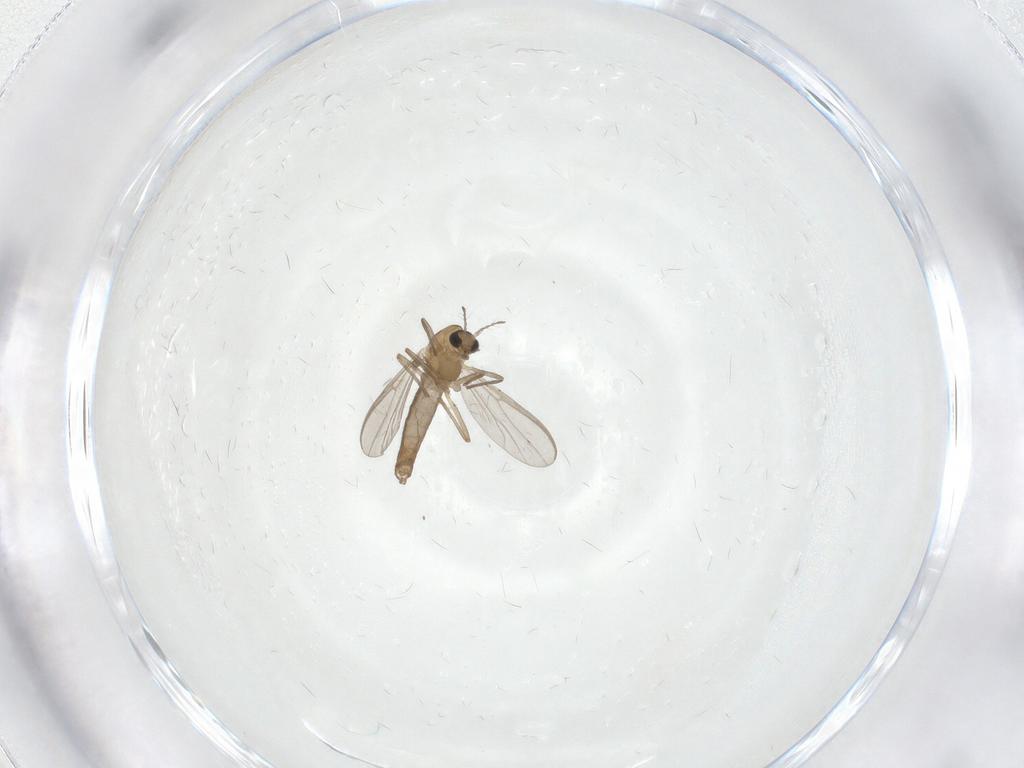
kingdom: Animalia
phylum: Arthropoda
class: Insecta
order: Diptera
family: Chironomidae
